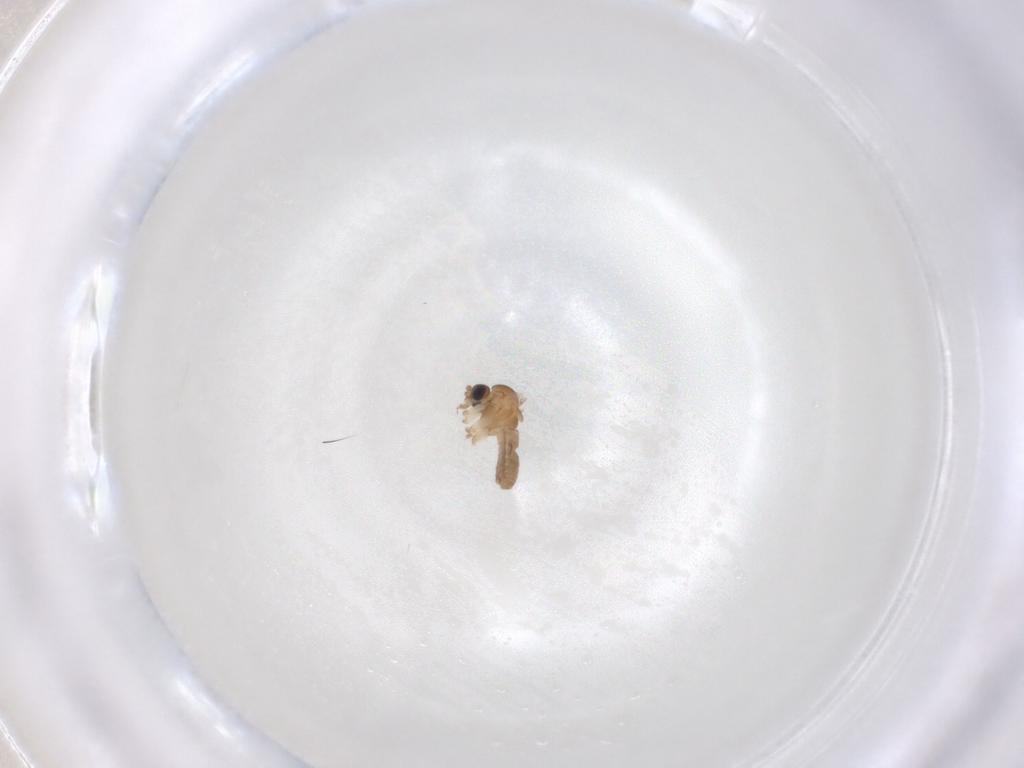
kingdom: Animalia
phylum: Arthropoda
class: Insecta
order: Diptera
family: Psychodidae
